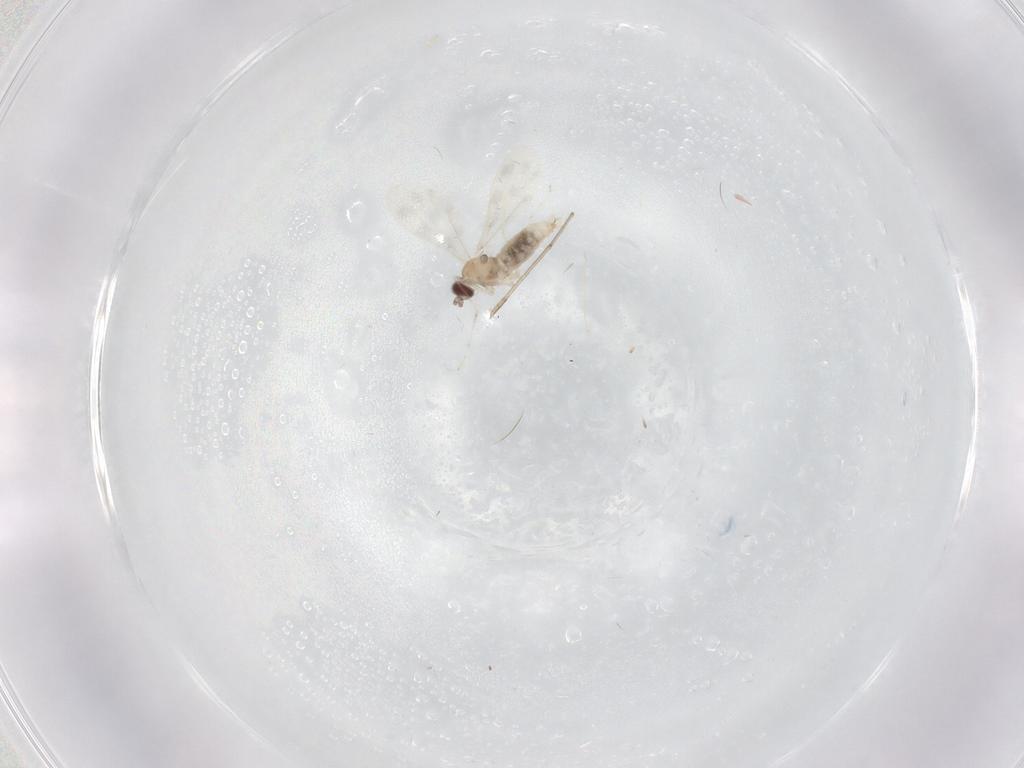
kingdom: Animalia
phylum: Arthropoda
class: Insecta
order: Diptera
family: Cecidomyiidae
